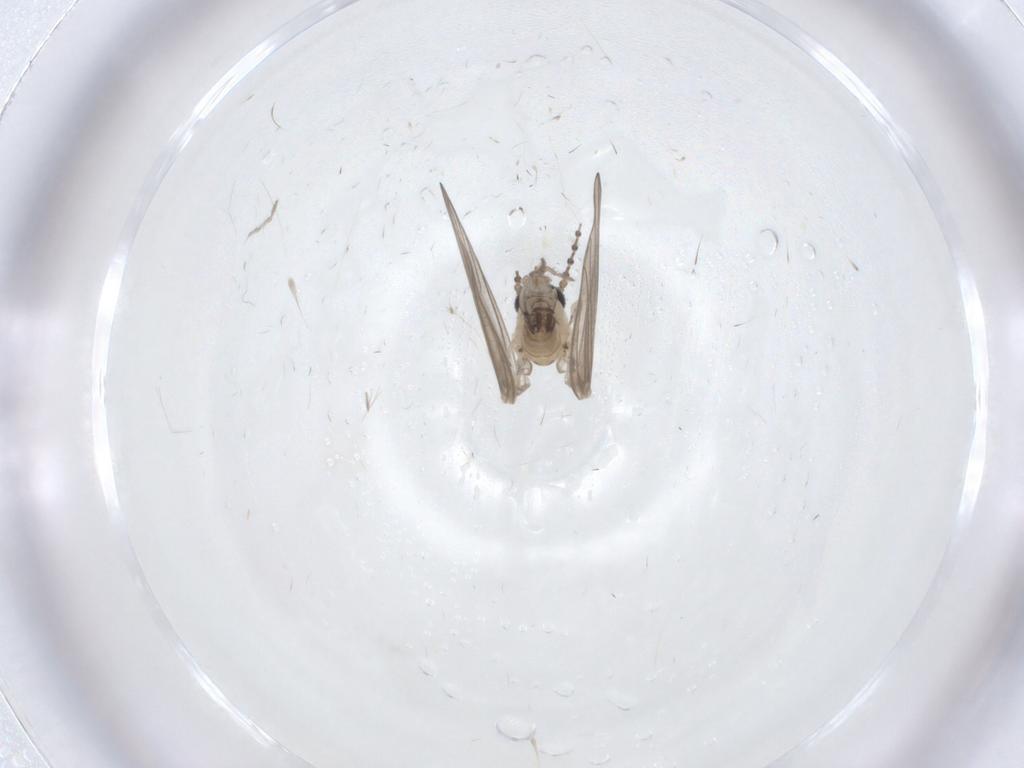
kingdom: Animalia
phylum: Arthropoda
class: Insecta
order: Diptera
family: Psychodidae
